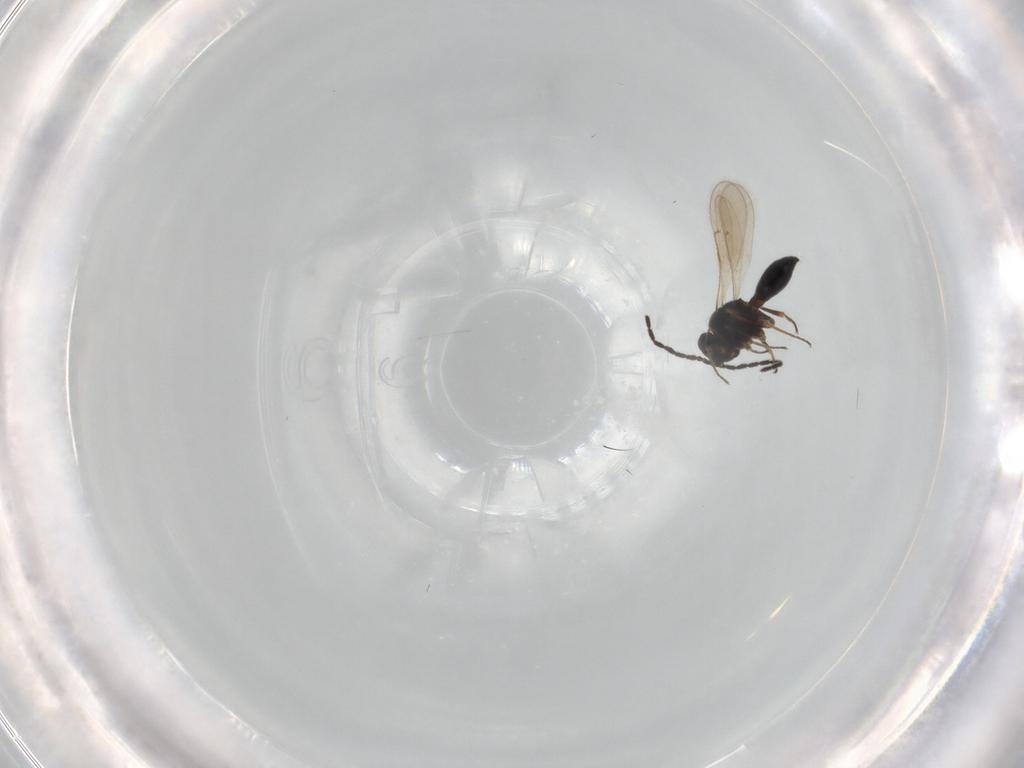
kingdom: Animalia
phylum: Arthropoda
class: Insecta
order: Hymenoptera
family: Scelionidae
